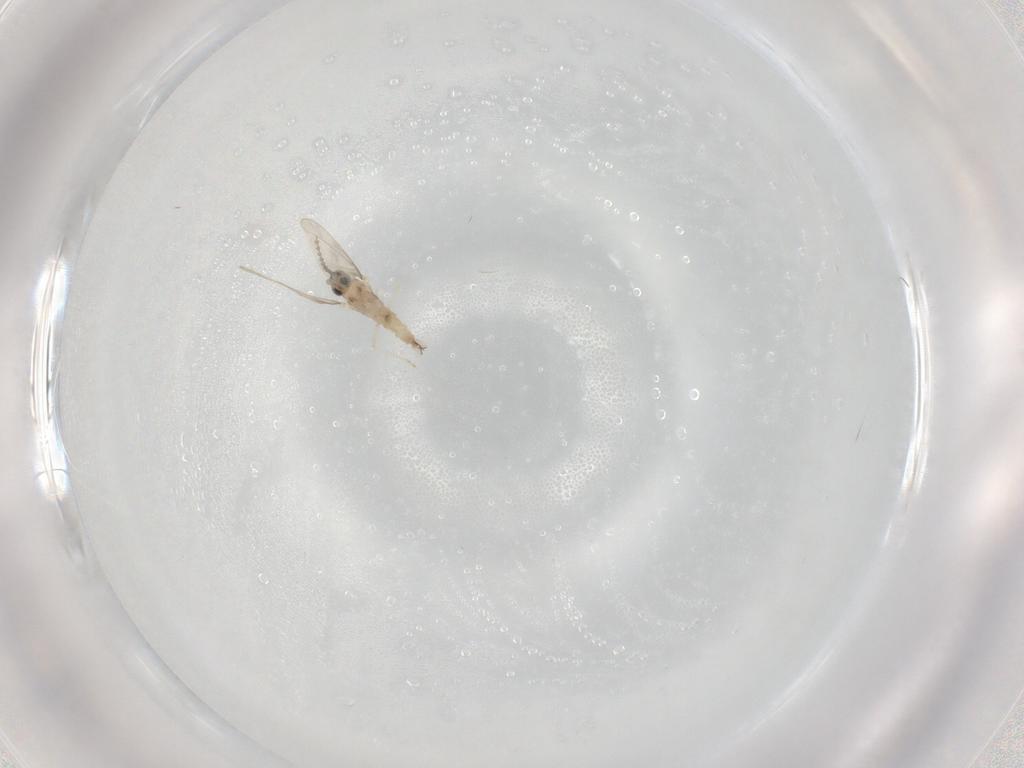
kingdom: Animalia
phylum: Arthropoda
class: Insecta
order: Diptera
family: Cecidomyiidae
